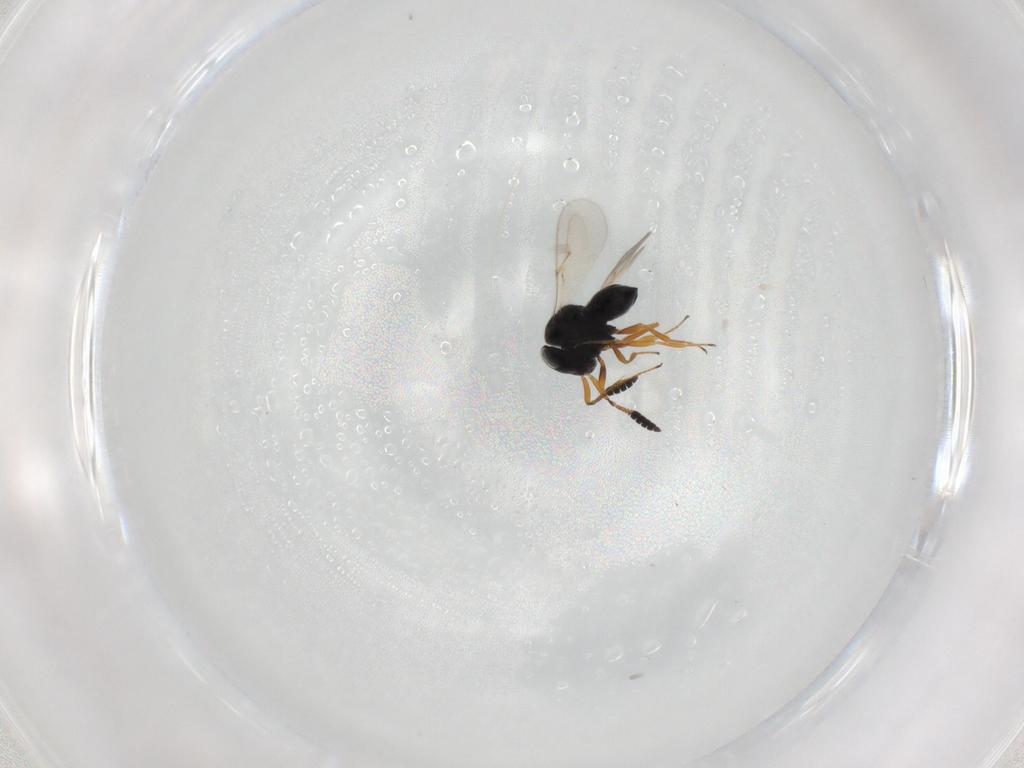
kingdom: Animalia
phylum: Arthropoda
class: Insecta
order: Hymenoptera
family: Scelionidae
